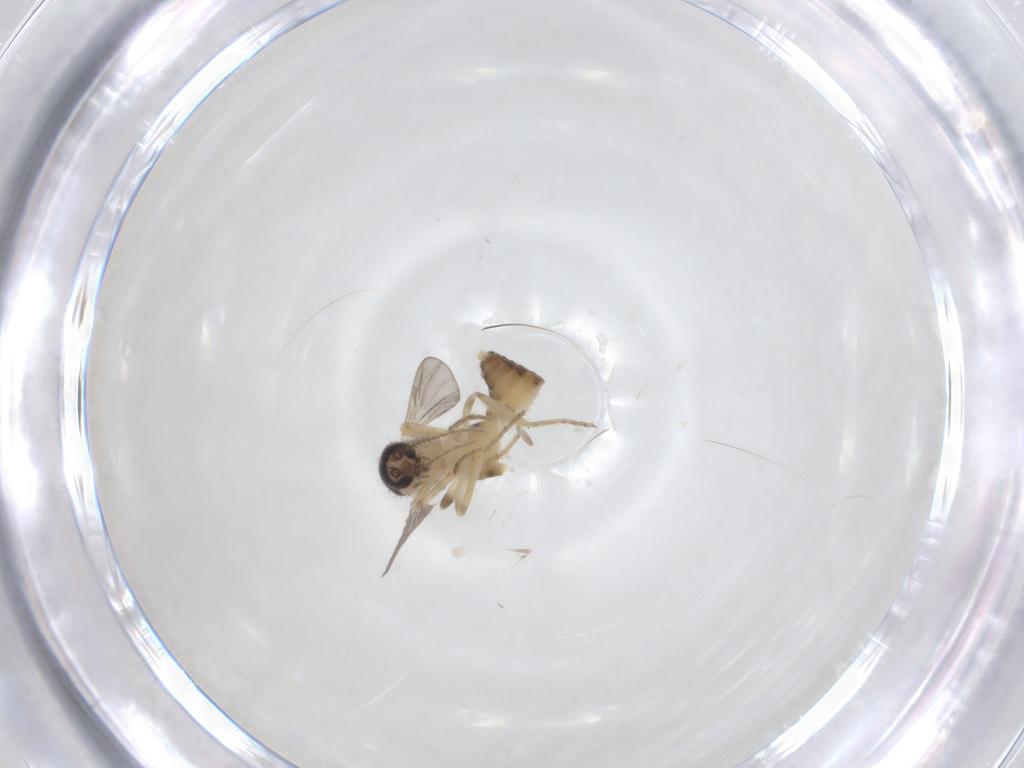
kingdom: Animalia
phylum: Arthropoda
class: Insecta
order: Diptera
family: Ceratopogonidae
